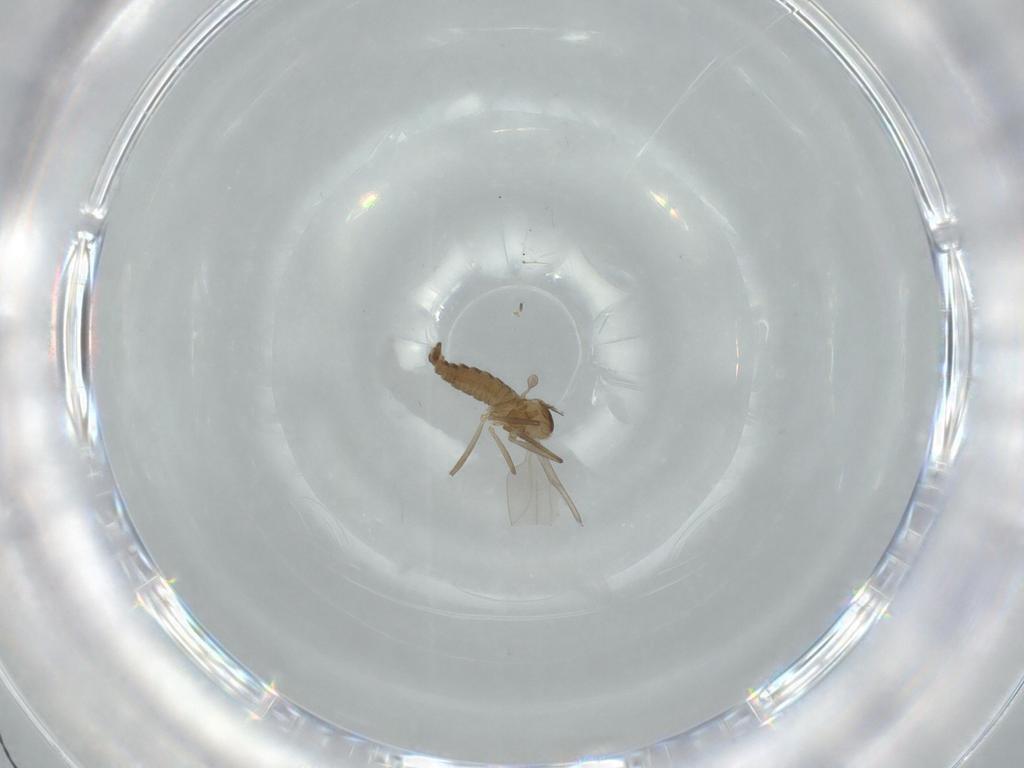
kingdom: Animalia
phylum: Arthropoda
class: Insecta
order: Diptera
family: Cecidomyiidae
